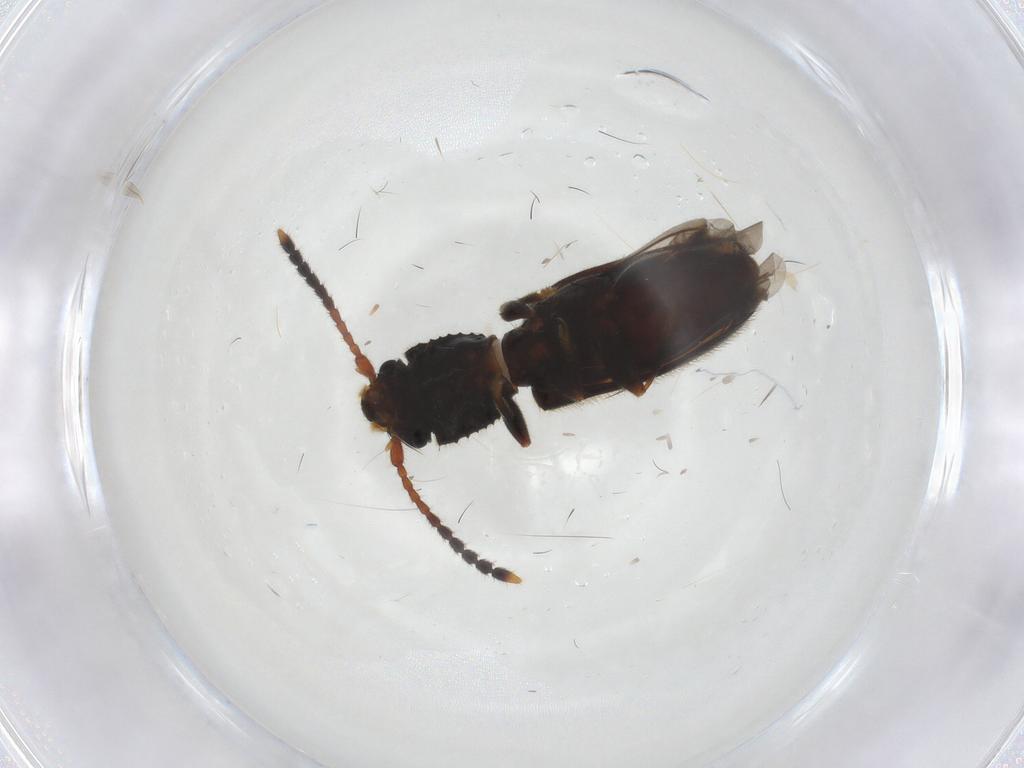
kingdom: Animalia
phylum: Arthropoda
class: Insecta
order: Coleoptera
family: Silvanidae
